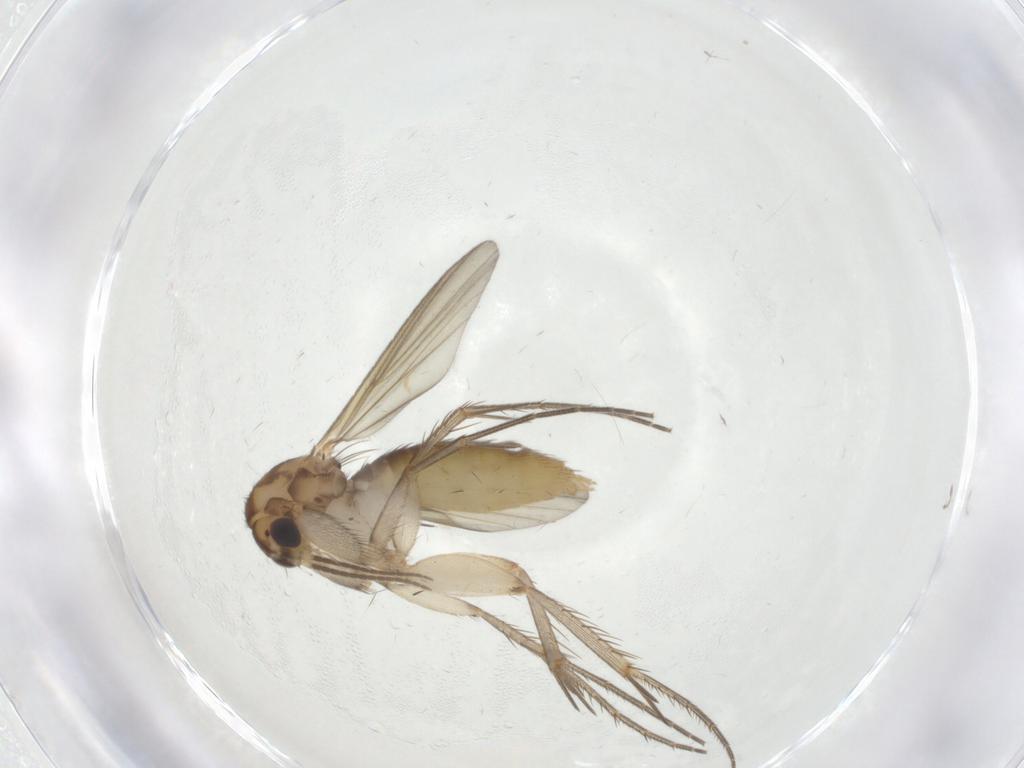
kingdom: Animalia
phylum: Arthropoda
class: Insecta
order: Diptera
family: Mycetophilidae
